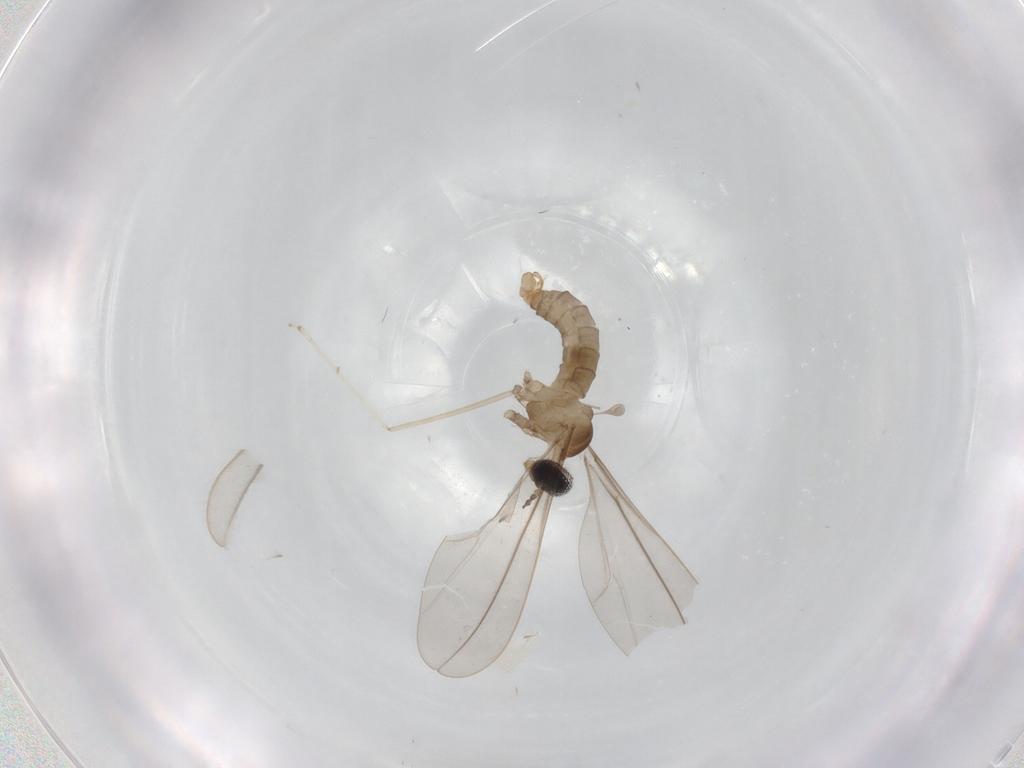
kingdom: Animalia
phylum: Arthropoda
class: Insecta
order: Diptera
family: Cecidomyiidae
